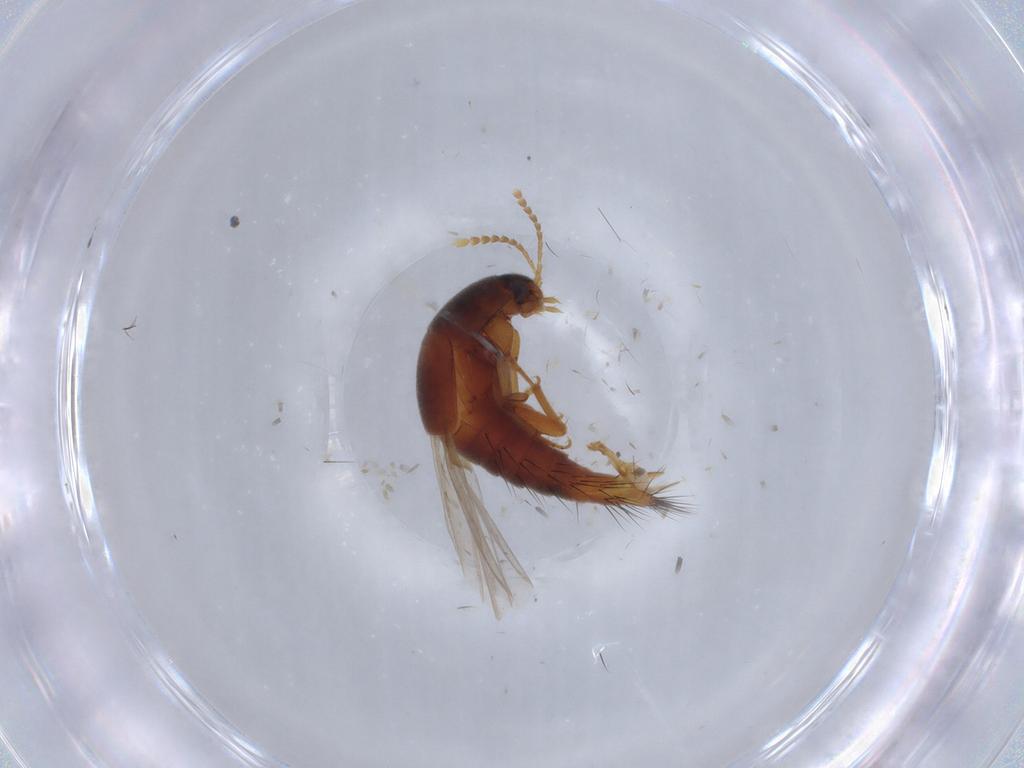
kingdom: Animalia
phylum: Arthropoda
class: Insecta
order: Coleoptera
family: Staphylinidae
